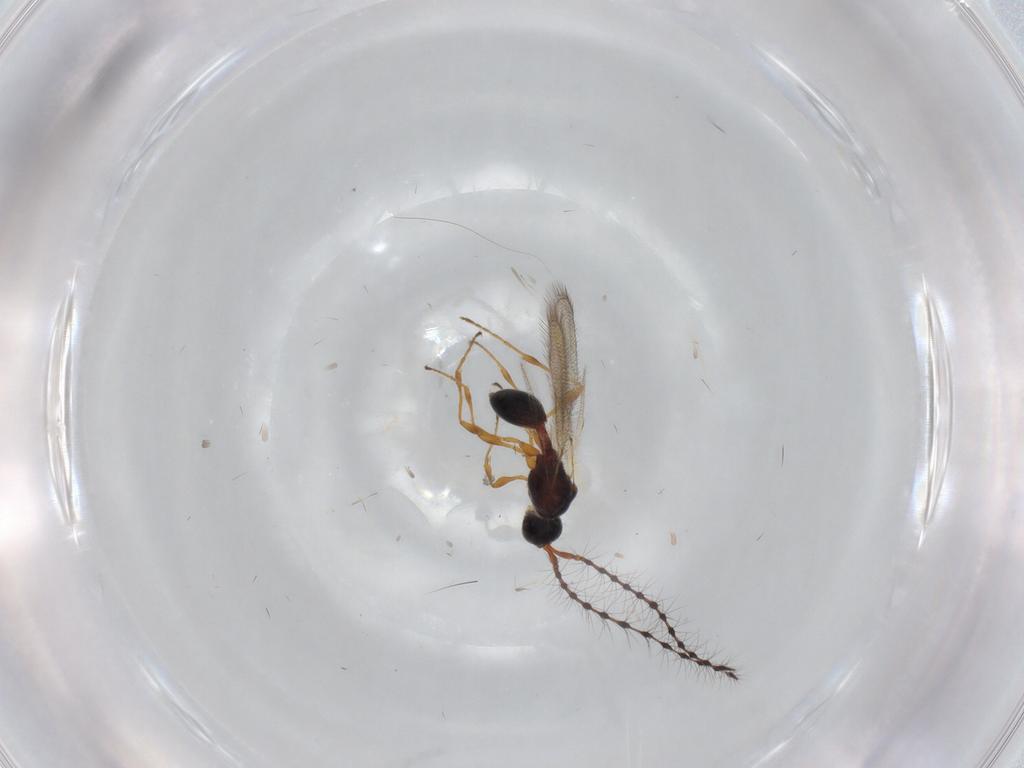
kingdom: Animalia
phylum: Arthropoda
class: Insecta
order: Hymenoptera
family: Diapriidae
